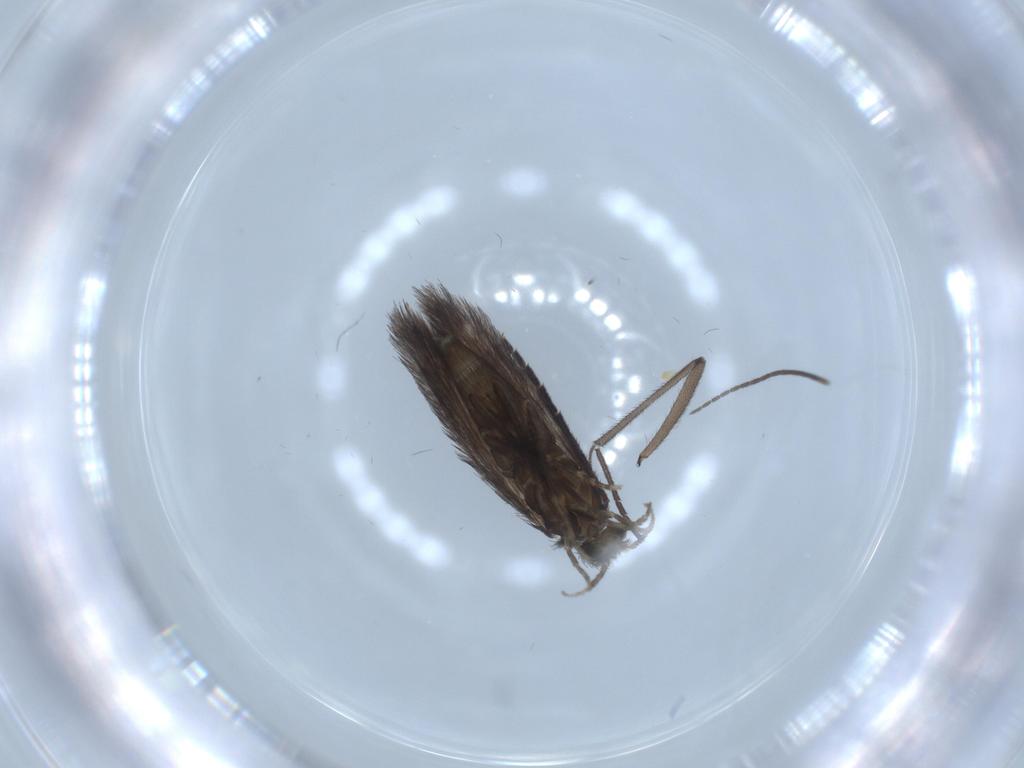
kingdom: Animalia
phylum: Arthropoda
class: Insecta
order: Trichoptera
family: Hydroptilidae
